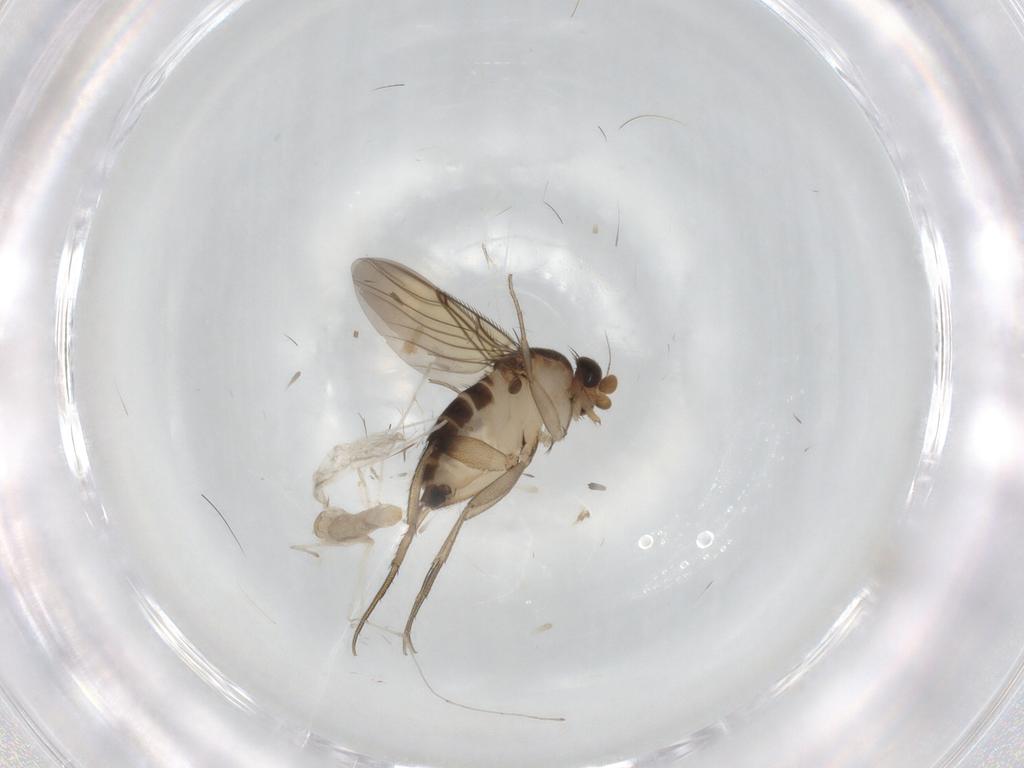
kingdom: Animalia
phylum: Arthropoda
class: Insecta
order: Diptera
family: Phoridae
